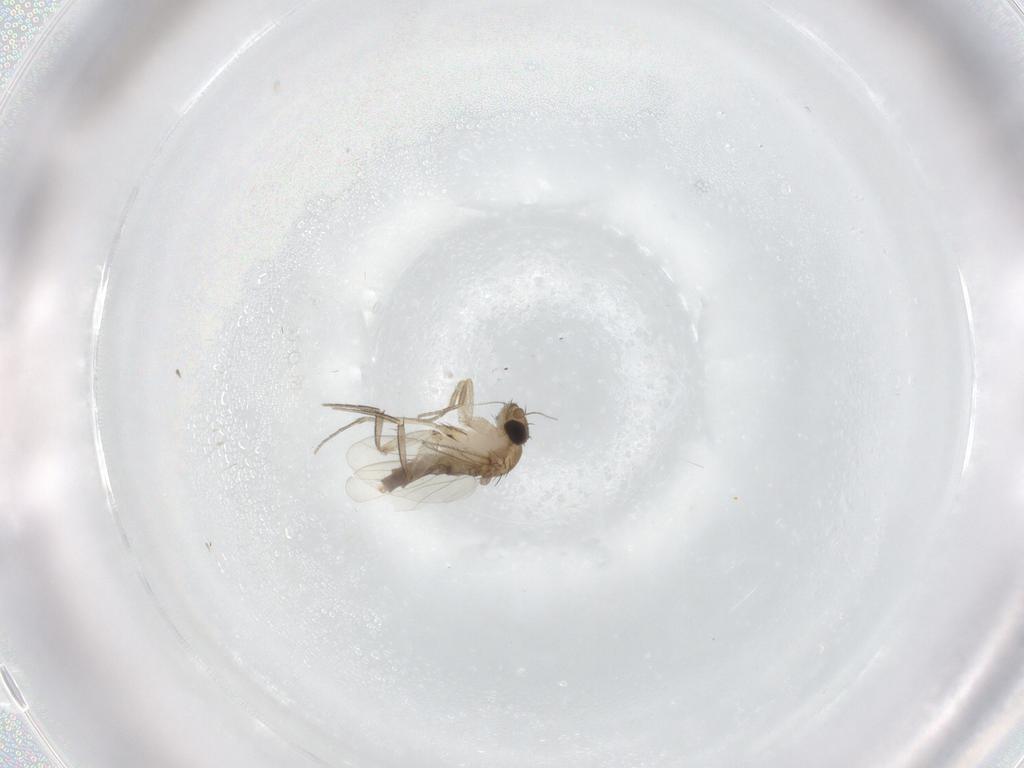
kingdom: Animalia
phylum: Arthropoda
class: Insecta
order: Diptera
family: Phoridae
